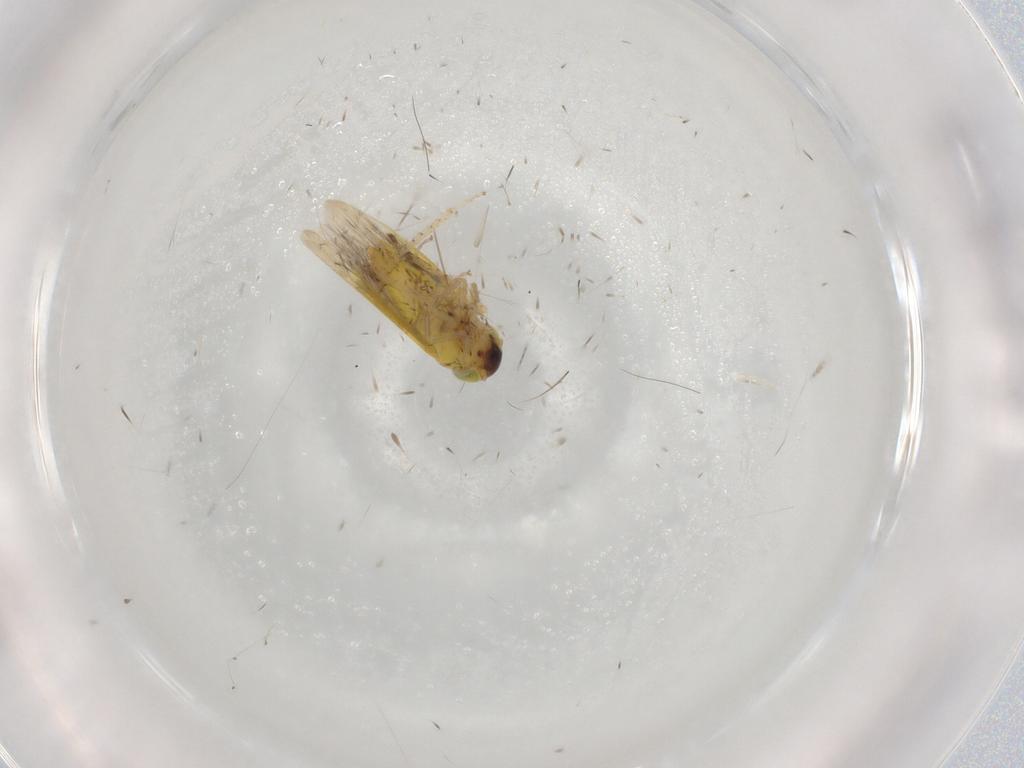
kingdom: Animalia
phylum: Arthropoda
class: Insecta
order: Hemiptera
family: Cicadellidae
